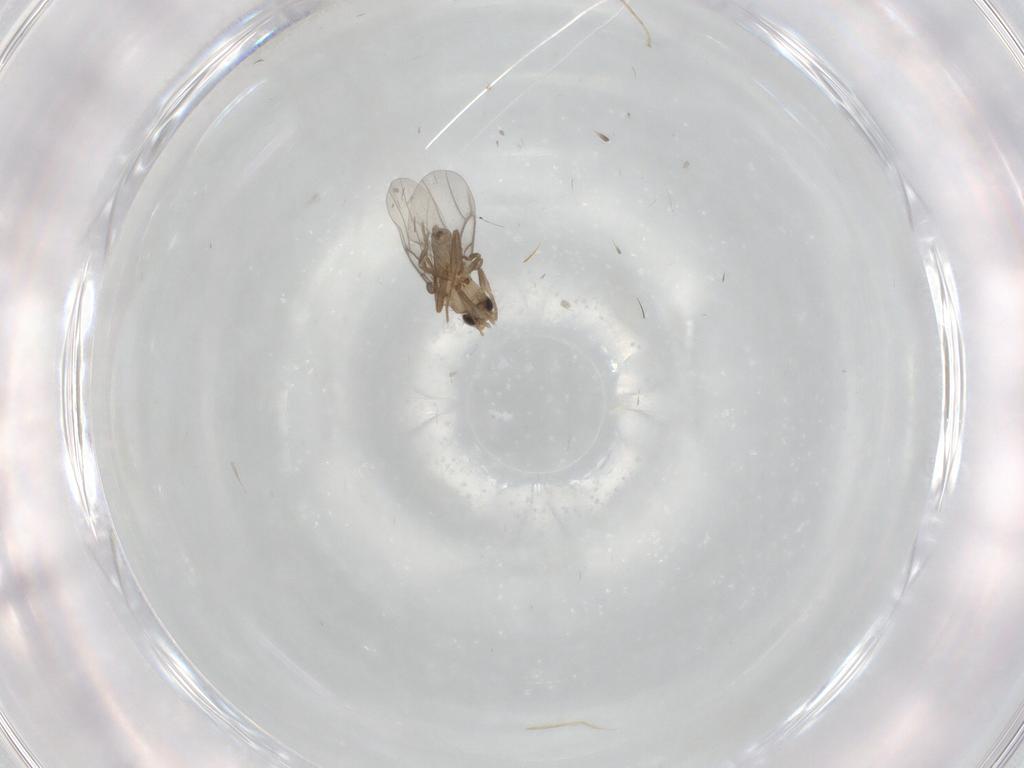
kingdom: Animalia
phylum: Arthropoda
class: Insecta
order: Diptera
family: Chironomidae
